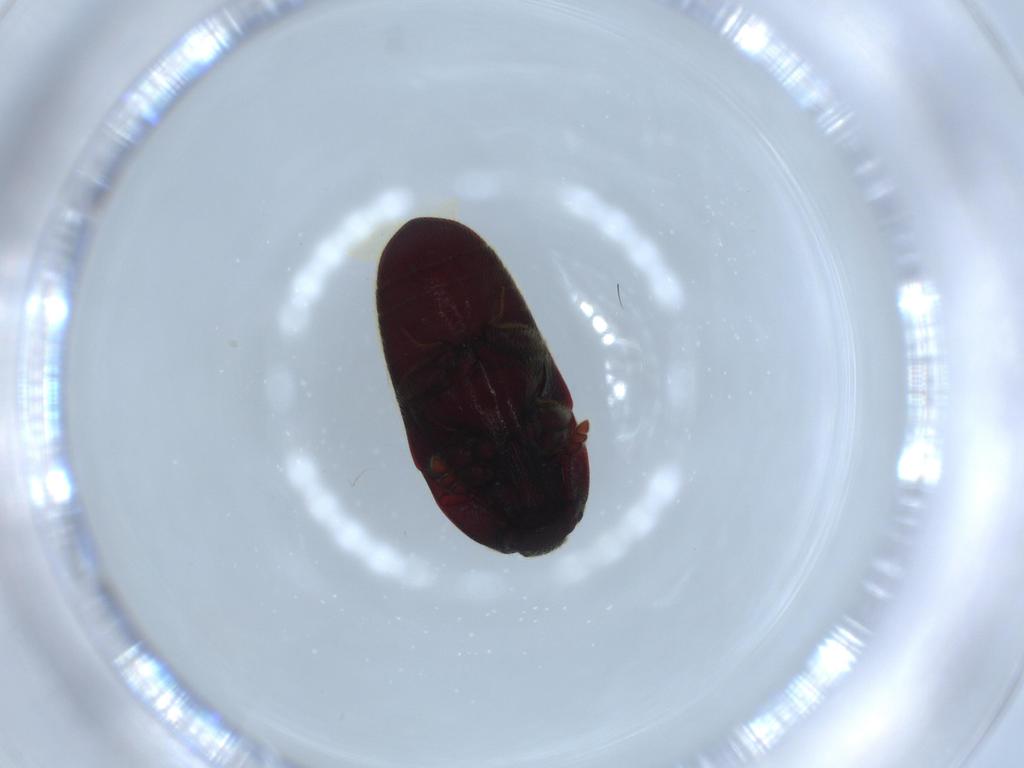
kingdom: Animalia
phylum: Arthropoda
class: Insecta
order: Coleoptera
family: Throscidae
